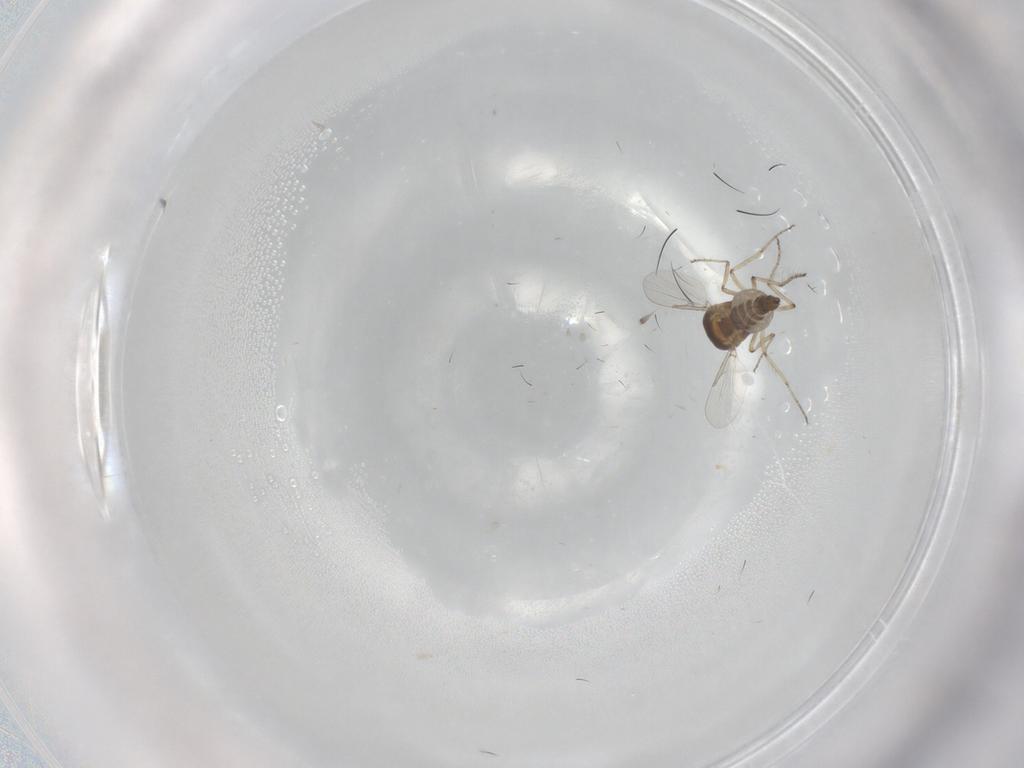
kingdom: Animalia
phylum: Arthropoda
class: Insecta
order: Diptera
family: Ceratopogonidae
